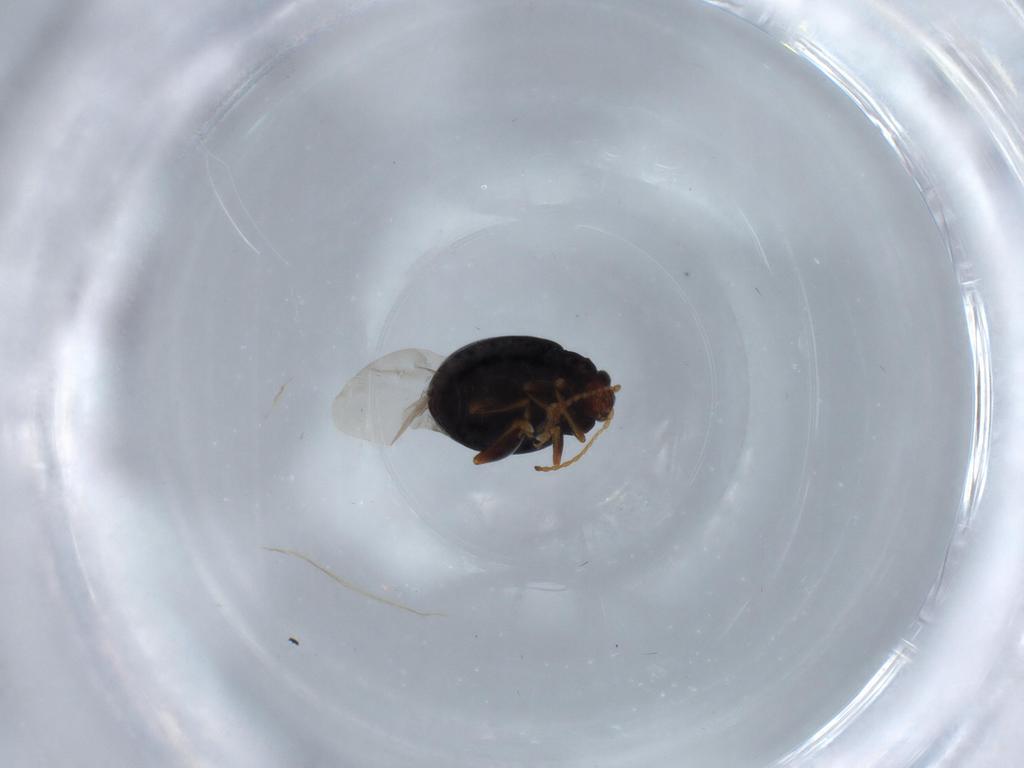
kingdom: Animalia
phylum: Arthropoda
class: Insecta
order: Coleoptera
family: Chrysomelidae
